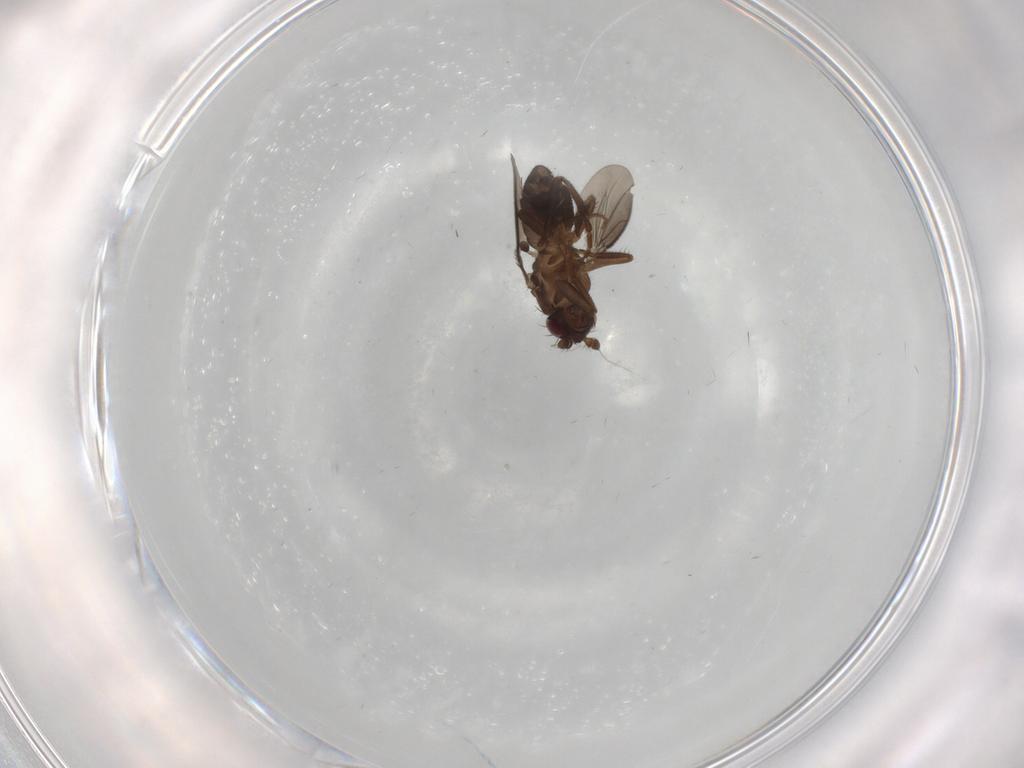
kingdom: Animalia
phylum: Arthropoda
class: Insecta
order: Diptera
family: Sphaeroceridae
